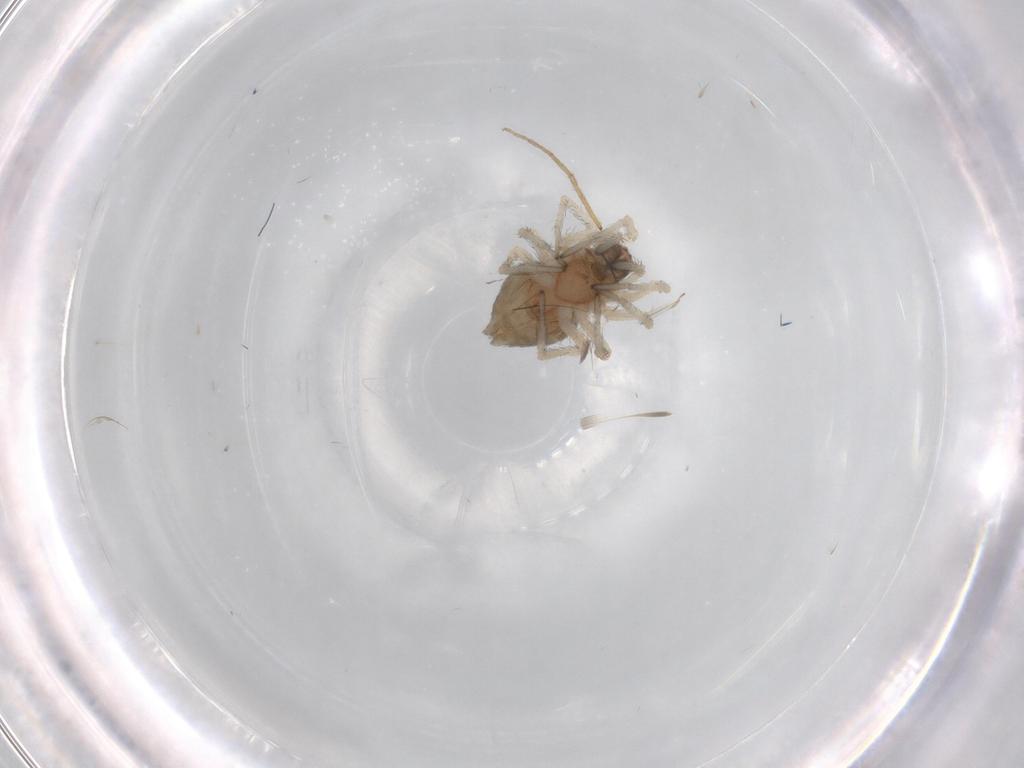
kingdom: Animalia
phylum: Arthropoda
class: Arachnida
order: Araneae
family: Dictynidae
